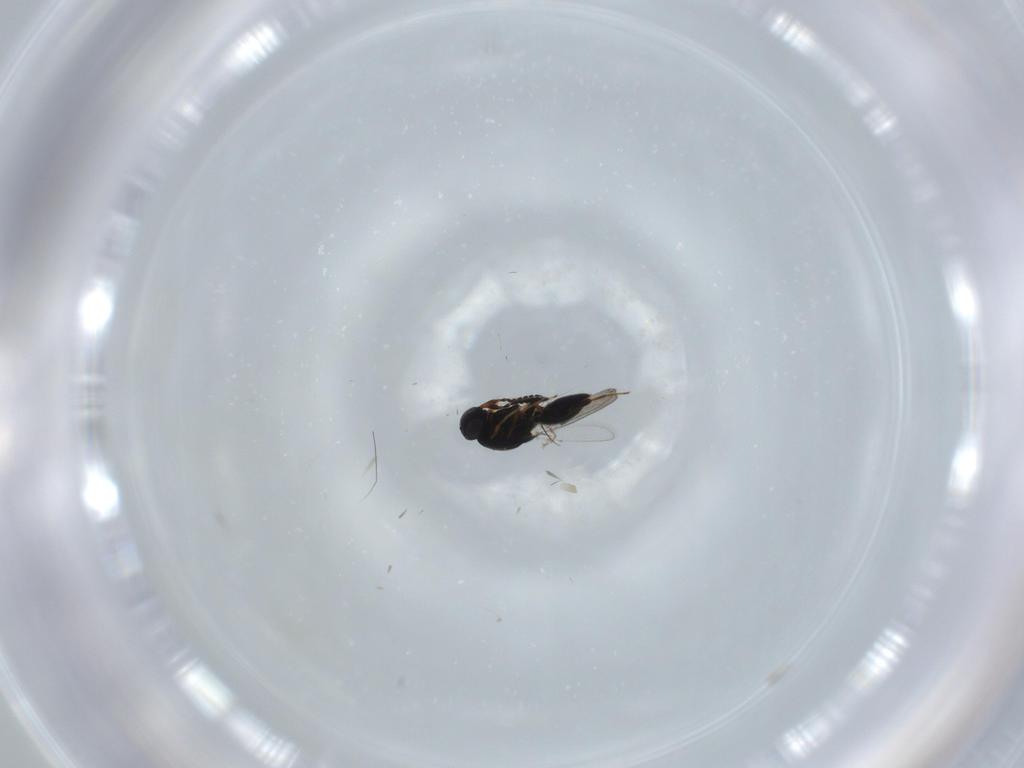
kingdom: Animalia
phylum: Arthropoda
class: Insecta
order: Hymenoptera
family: Platygastridae
